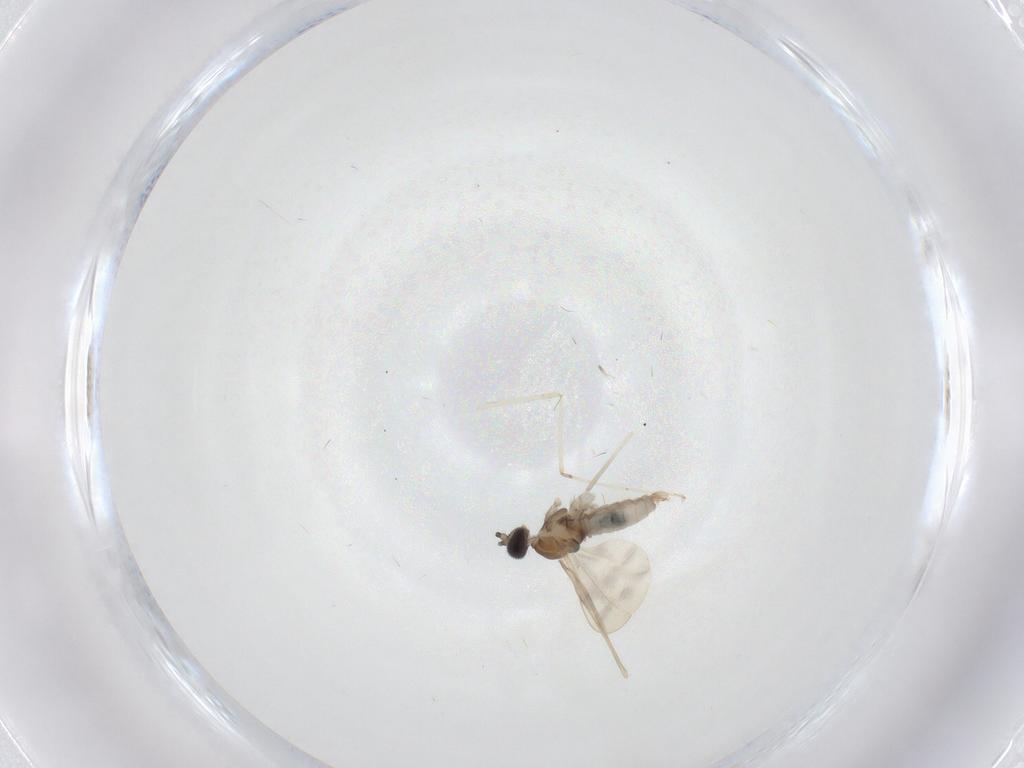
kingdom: Animalia
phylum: Arthropoda
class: Insecta
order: Diptera
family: Cecidomyiidae
